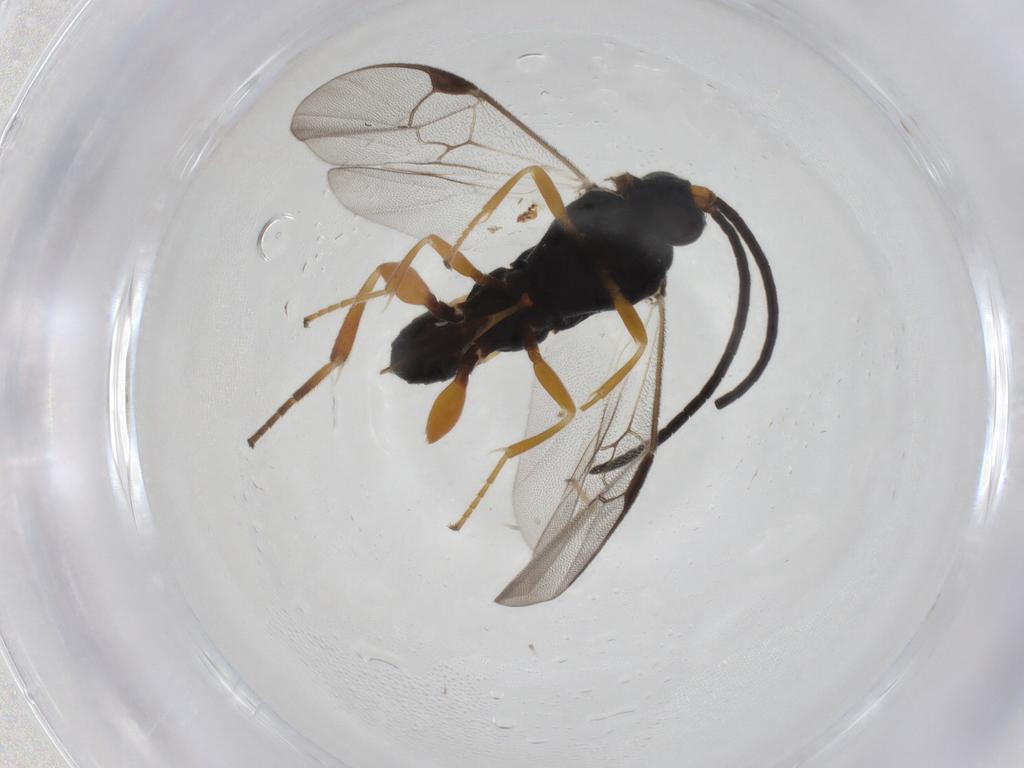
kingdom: Animalia
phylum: Arthropoda
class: Insecta
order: Hymenoptera
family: Braconidae
